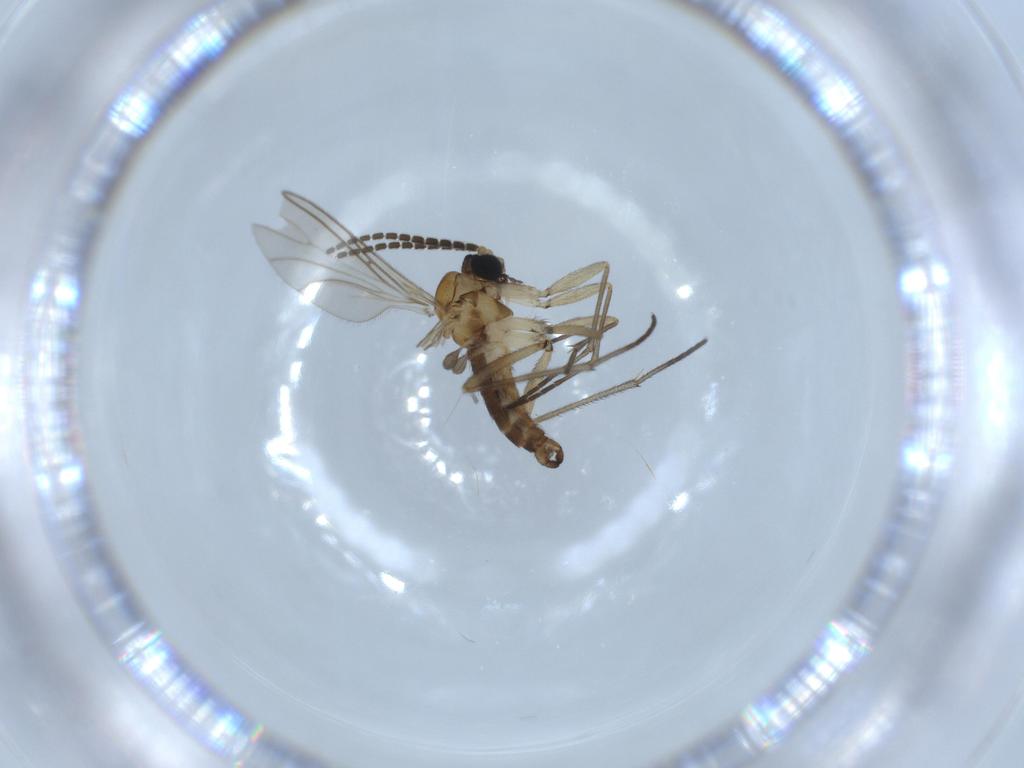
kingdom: Animalia
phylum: Arthropoda
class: Insecta
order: Diptera
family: Sciaridae
